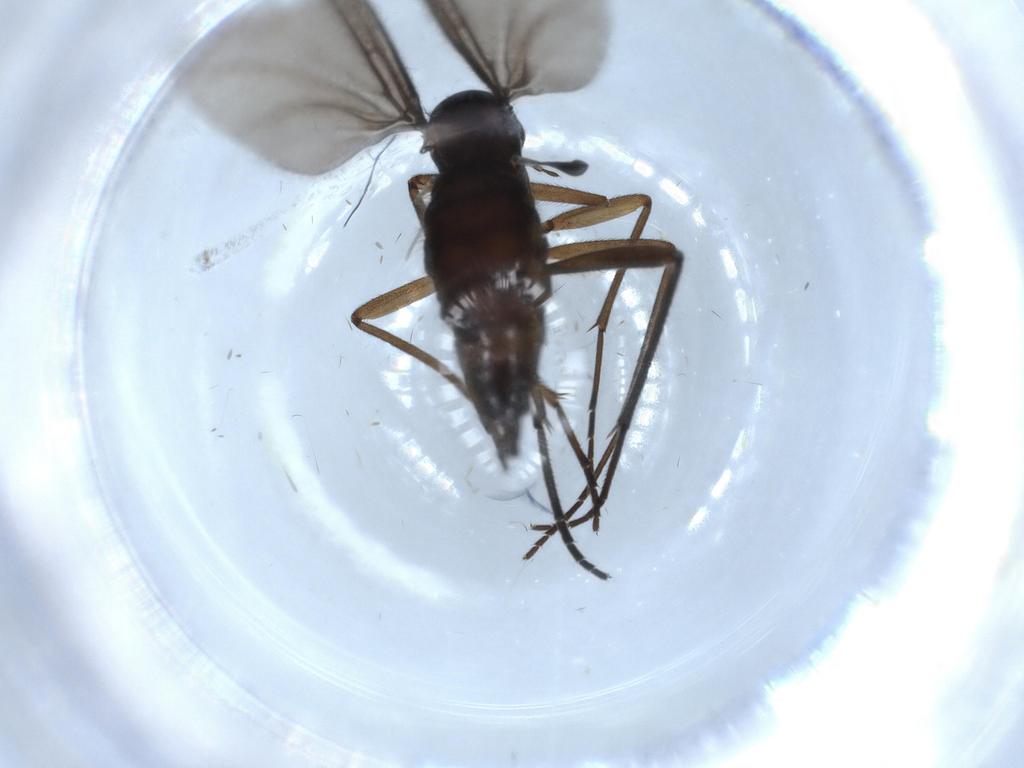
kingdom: Animalia
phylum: Arthropoda
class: Insecta
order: Diptera
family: Sciaridae
